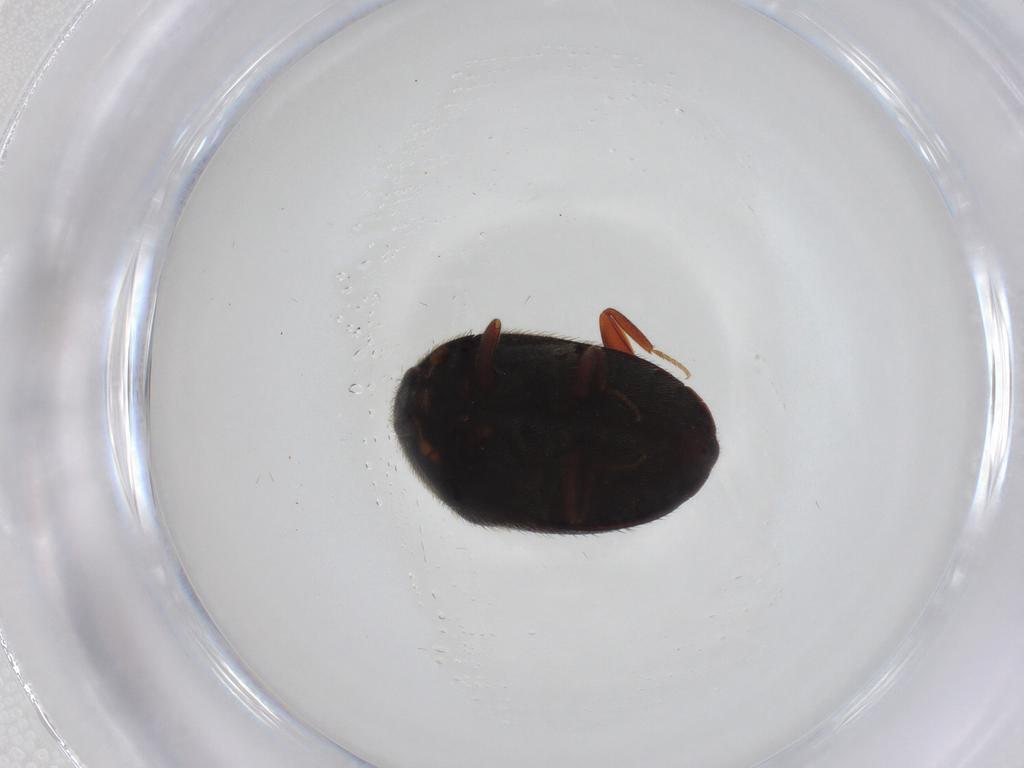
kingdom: Animalia
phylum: Arthropoda
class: Insecta
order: Coleoptera
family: Dermestidae
